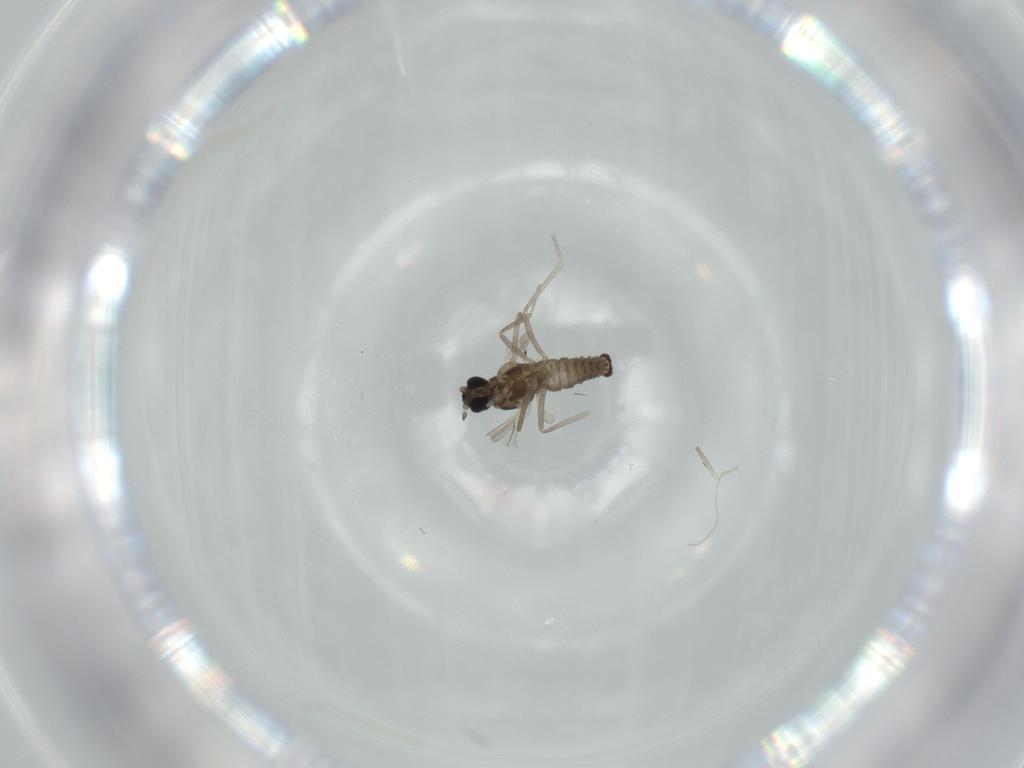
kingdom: Animalia
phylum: Arthropoda
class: Insecta
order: Diptera
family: Cecidomyiidae
